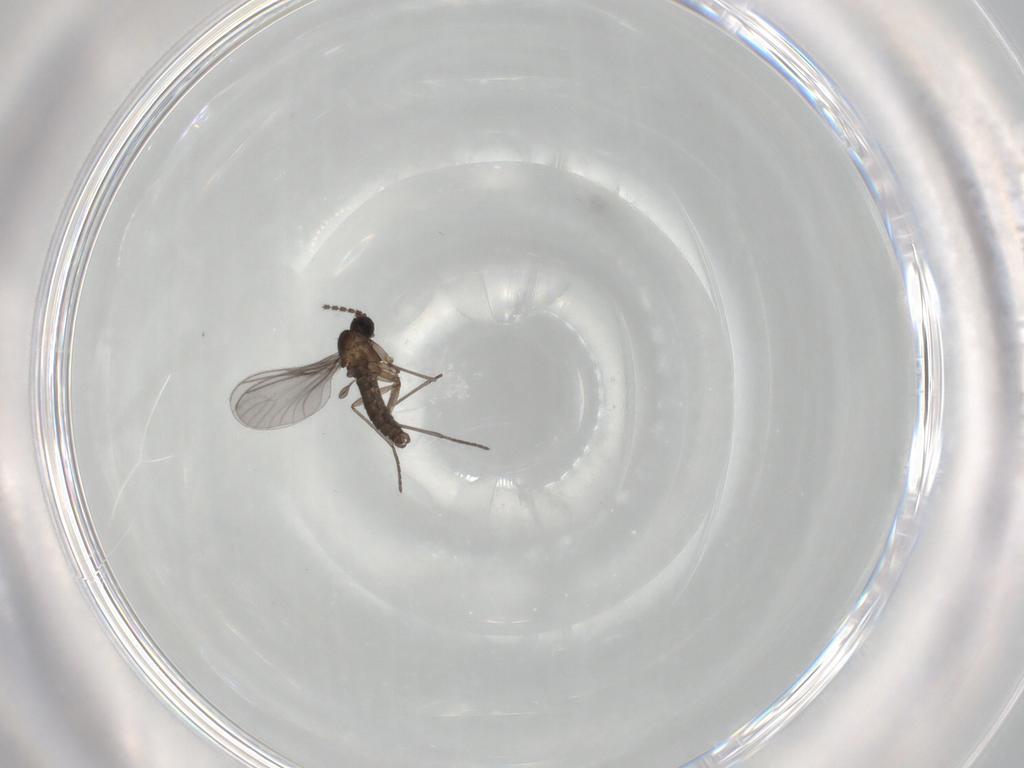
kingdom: Animalia
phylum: Arthropoda
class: Insecta
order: Diptera
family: Sciaridae
